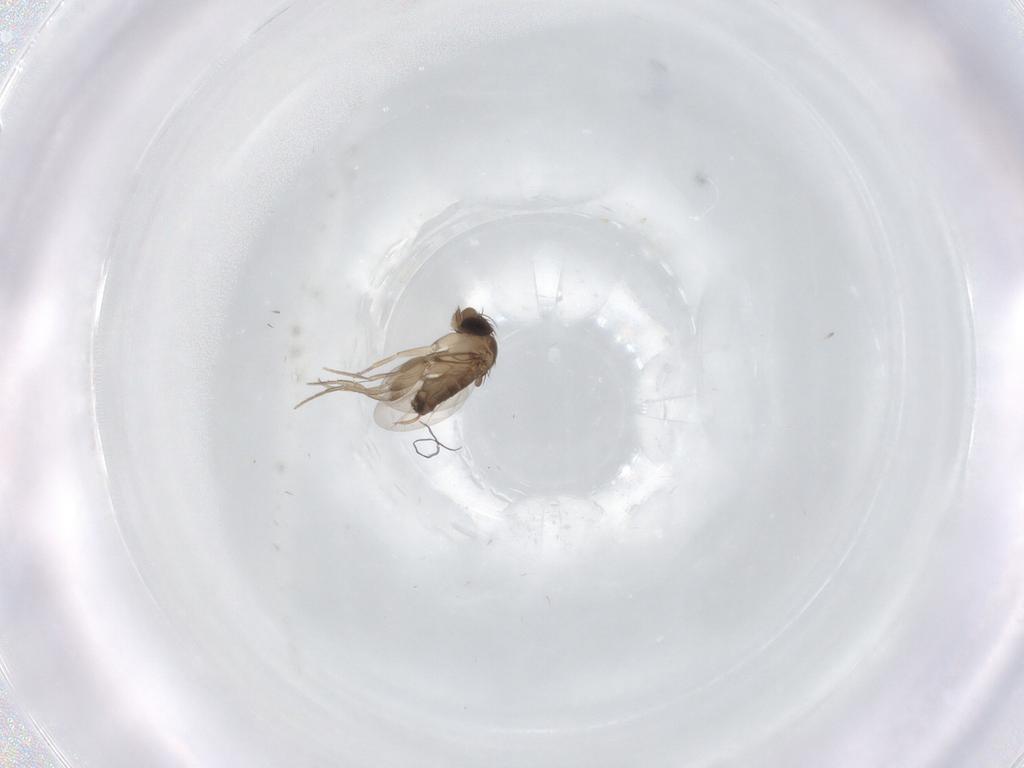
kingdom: Animalia
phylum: Arthropoda
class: Insecta
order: Diptera
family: Phoridae
